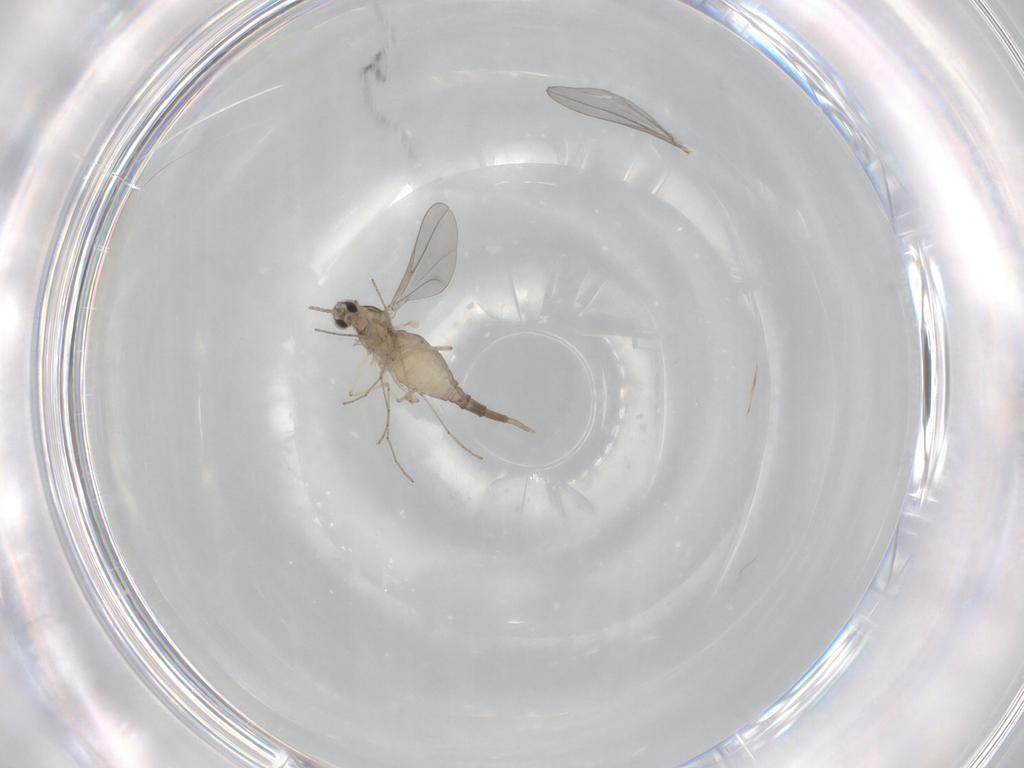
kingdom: Animalia
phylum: Arthropoda
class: Insecta
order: Diptera
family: Cecidomyiidae
